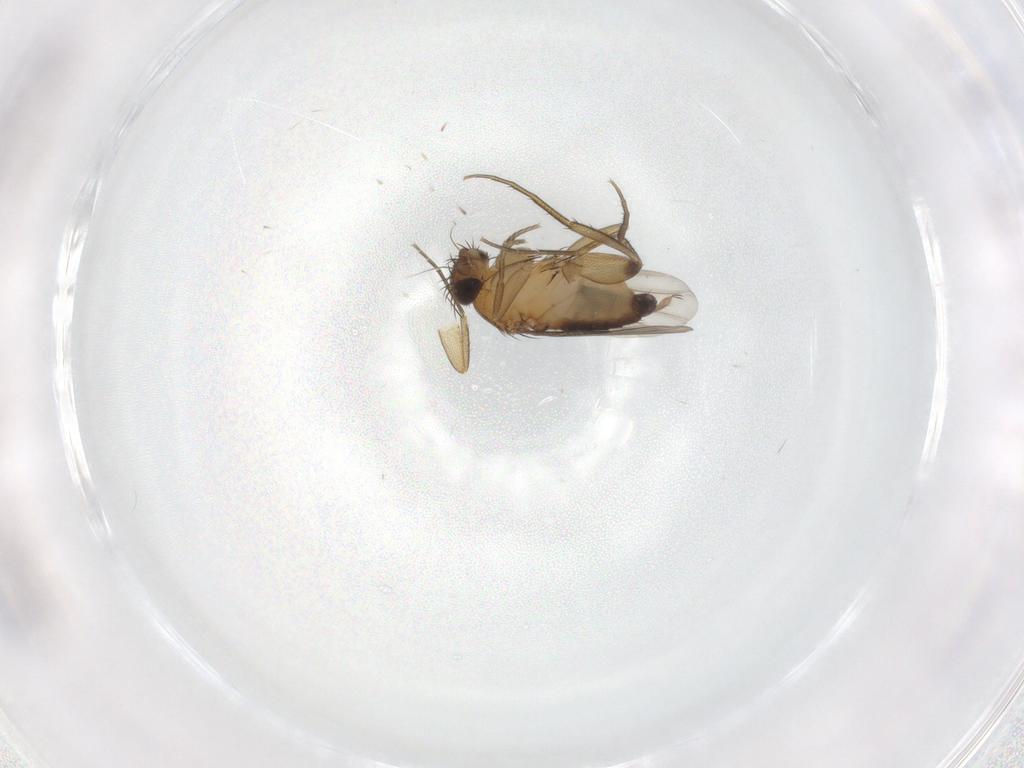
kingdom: Animalia
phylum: Arthropoda
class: Insecta
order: Diptera
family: Phoridae
